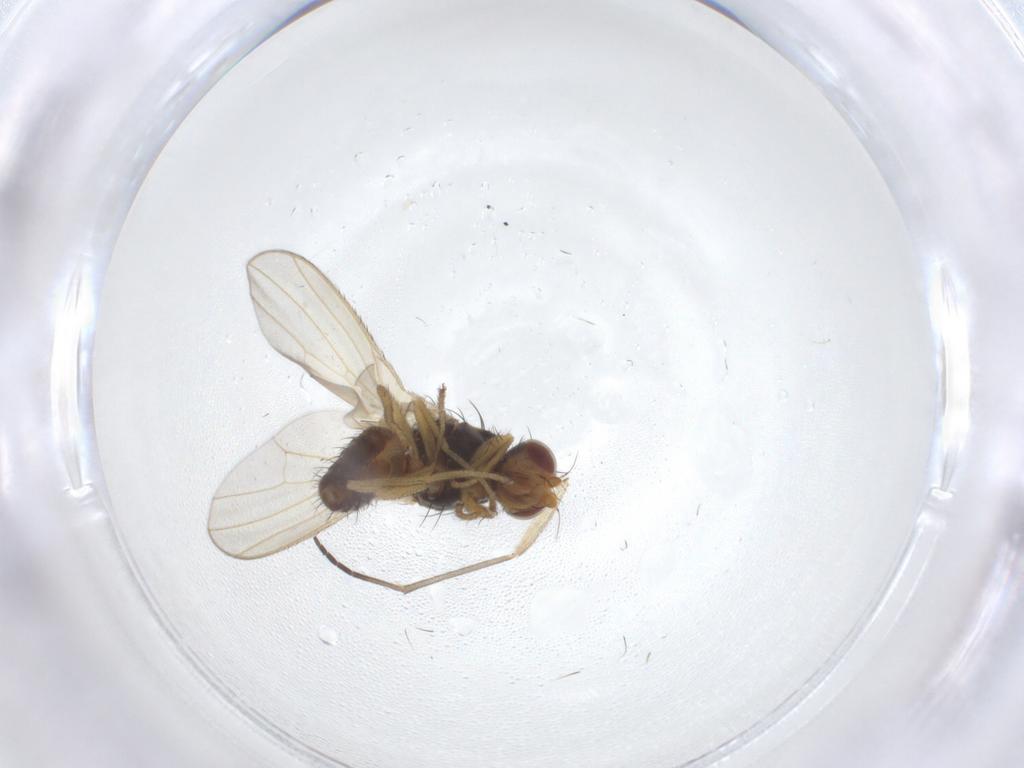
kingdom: Animalia
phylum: Arthropoda
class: Insecta
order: Diptera
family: Sciaridae
